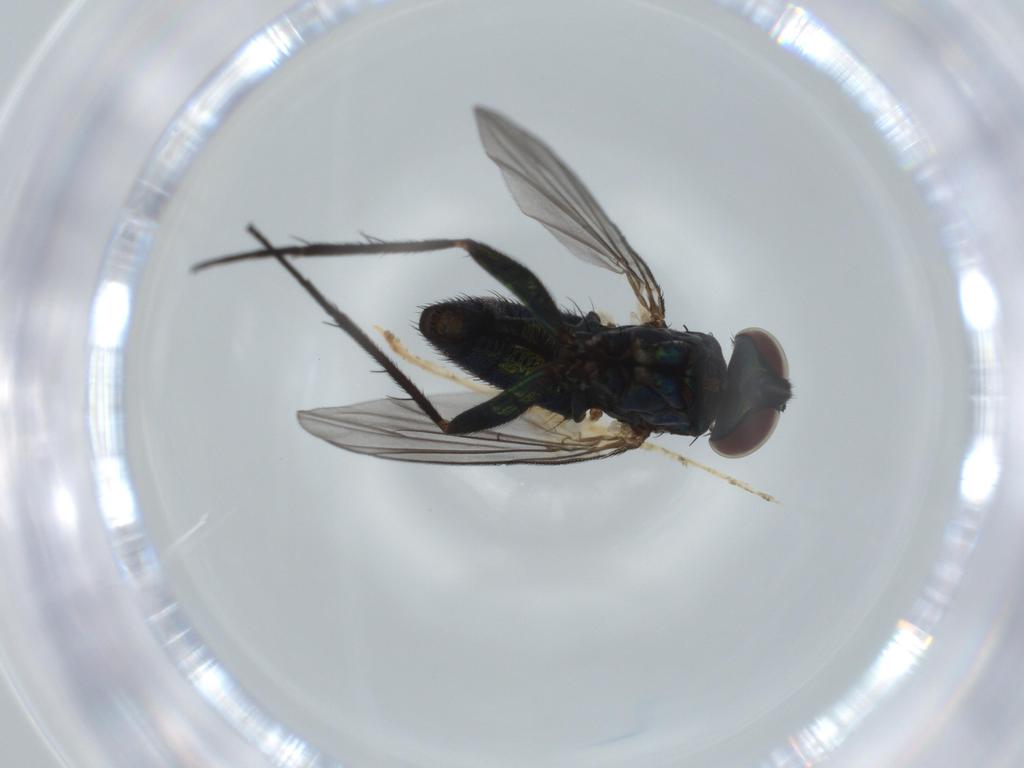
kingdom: Animalia
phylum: Arthropoda
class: Insecta
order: Diptera
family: Dolichopodidae
